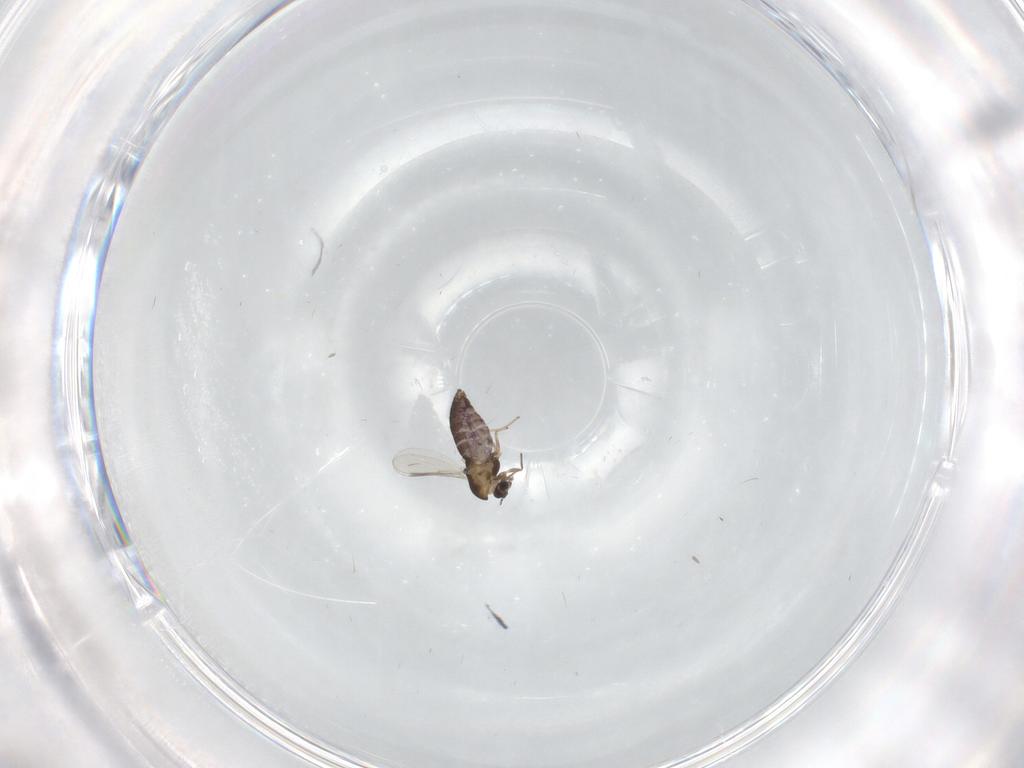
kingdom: Animalia
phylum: Arthropoda
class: Insecta
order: Diptera
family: Chironomidae
